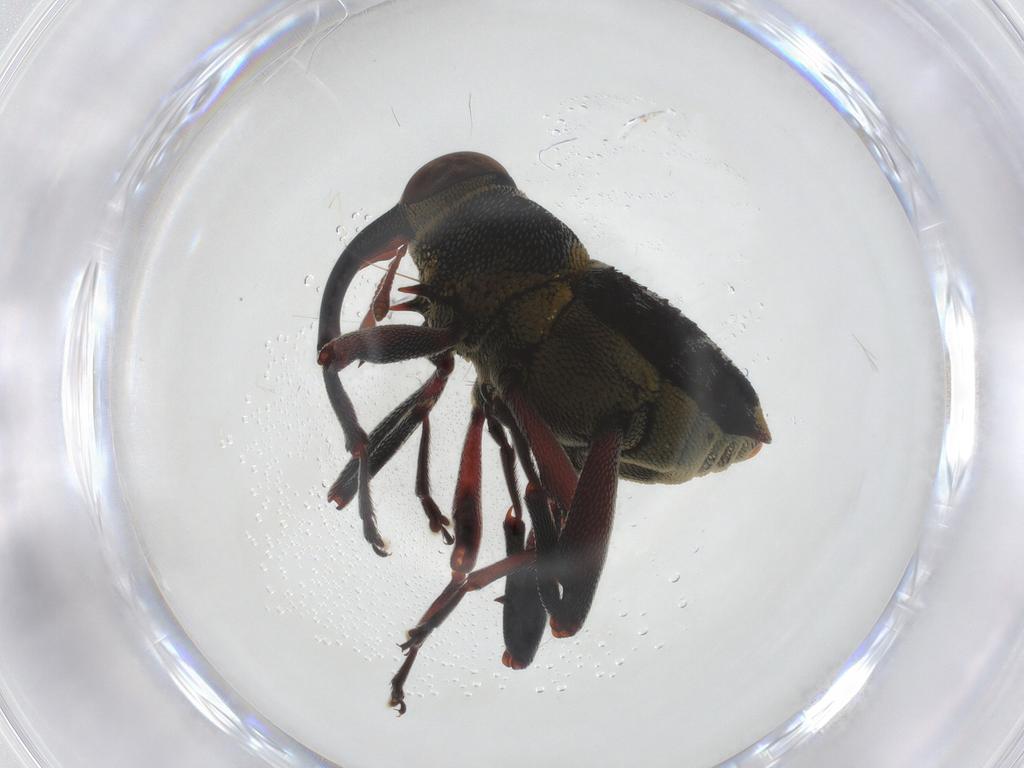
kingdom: Animalia
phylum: Arthropoda
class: Insecta
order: Coleoptera
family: Curculionidae
